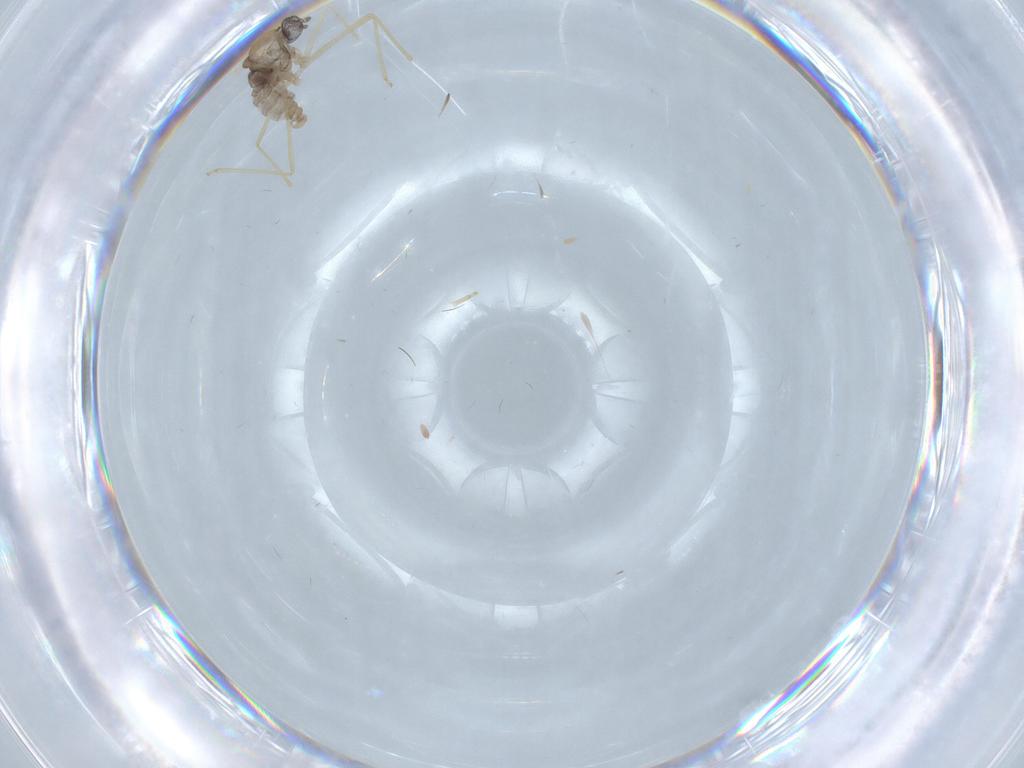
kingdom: Animalia
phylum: Arthropoda
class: Insecta
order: Diptera
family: Cecidomyiidae
